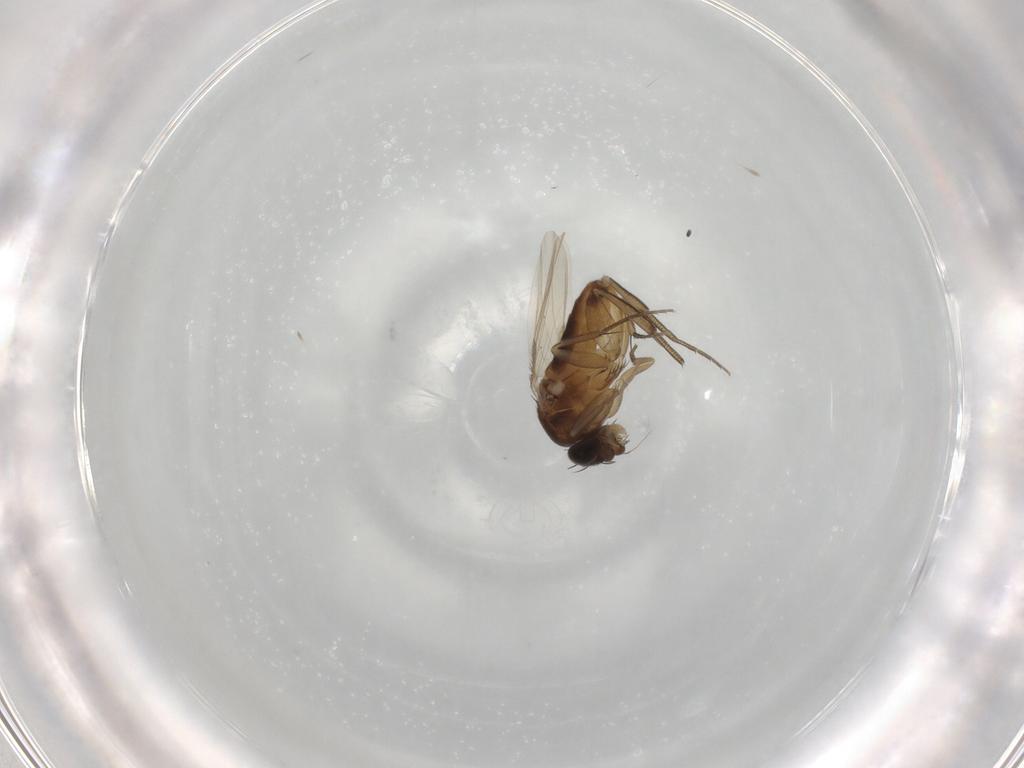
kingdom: Animalia
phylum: Arthropoda
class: Insecta
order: Diptera
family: Phoridae
